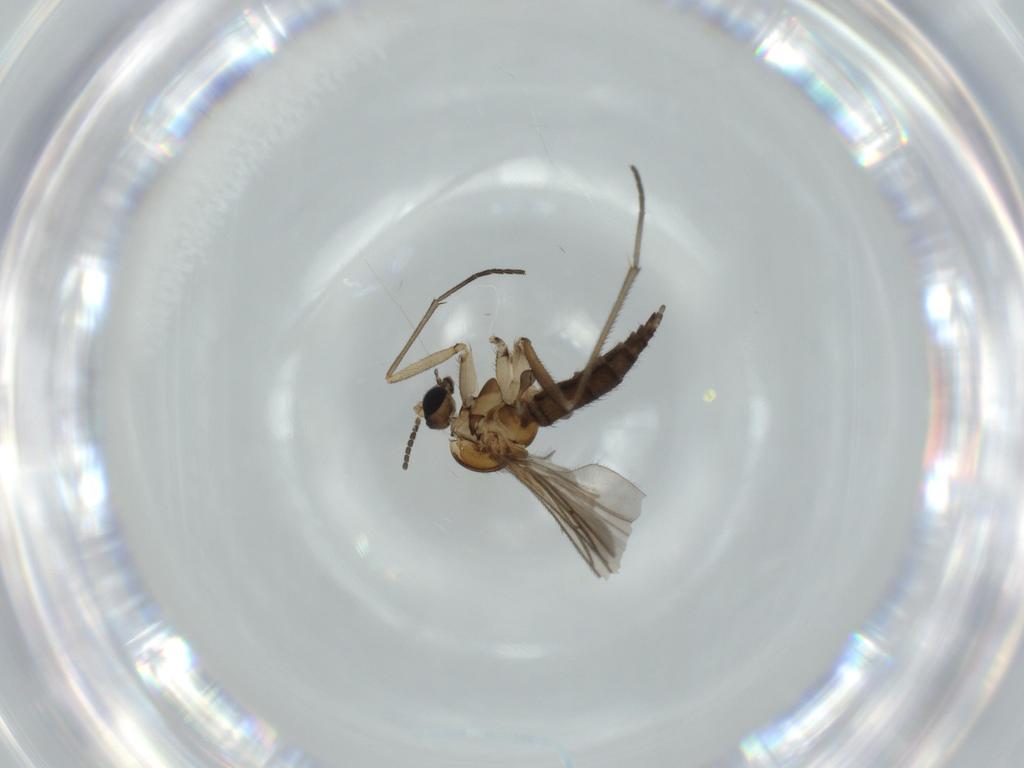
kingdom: Animalia
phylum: Arthropoda
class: Insecta
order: Diptera
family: Sciaridae
